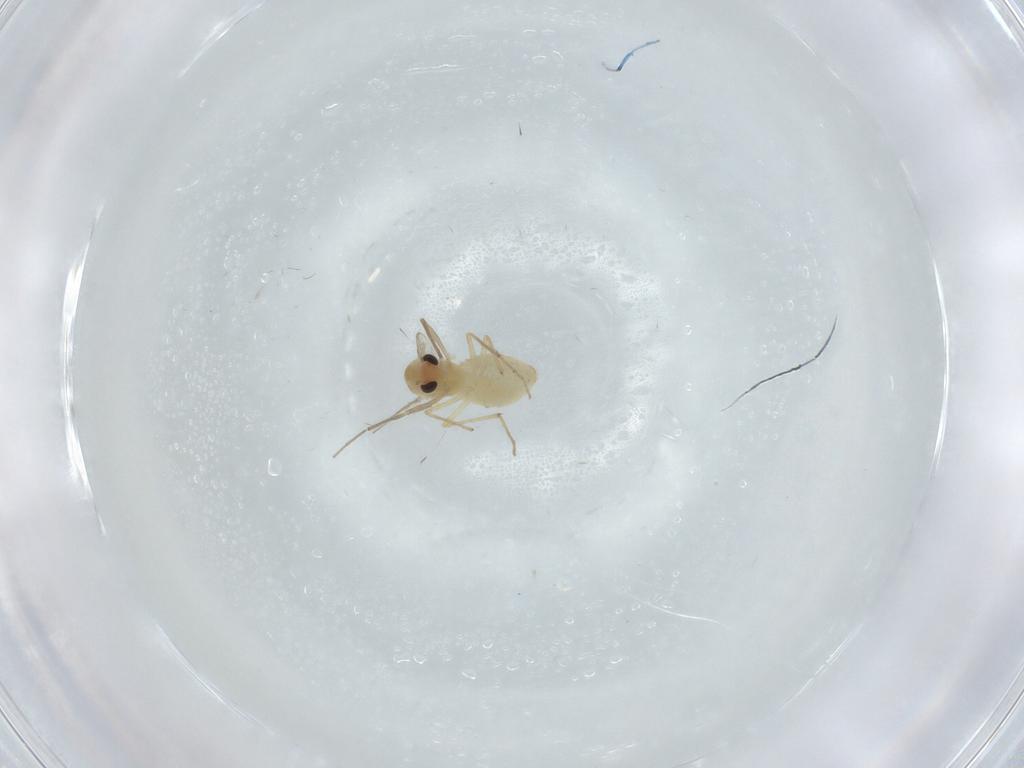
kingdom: Animalia
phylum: Arthropoda
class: Insecta
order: Diptera
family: Chironomidae
